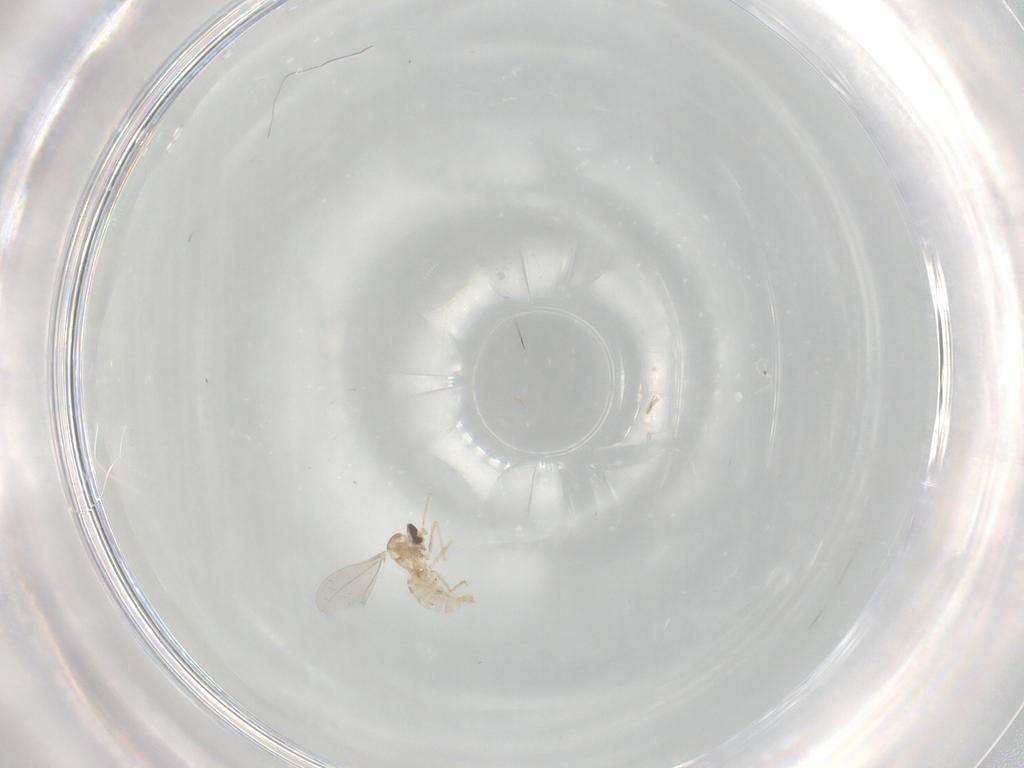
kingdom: Animalia
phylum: Arthropoda
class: Insecta
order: Diptera
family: Cecidomyiidae
